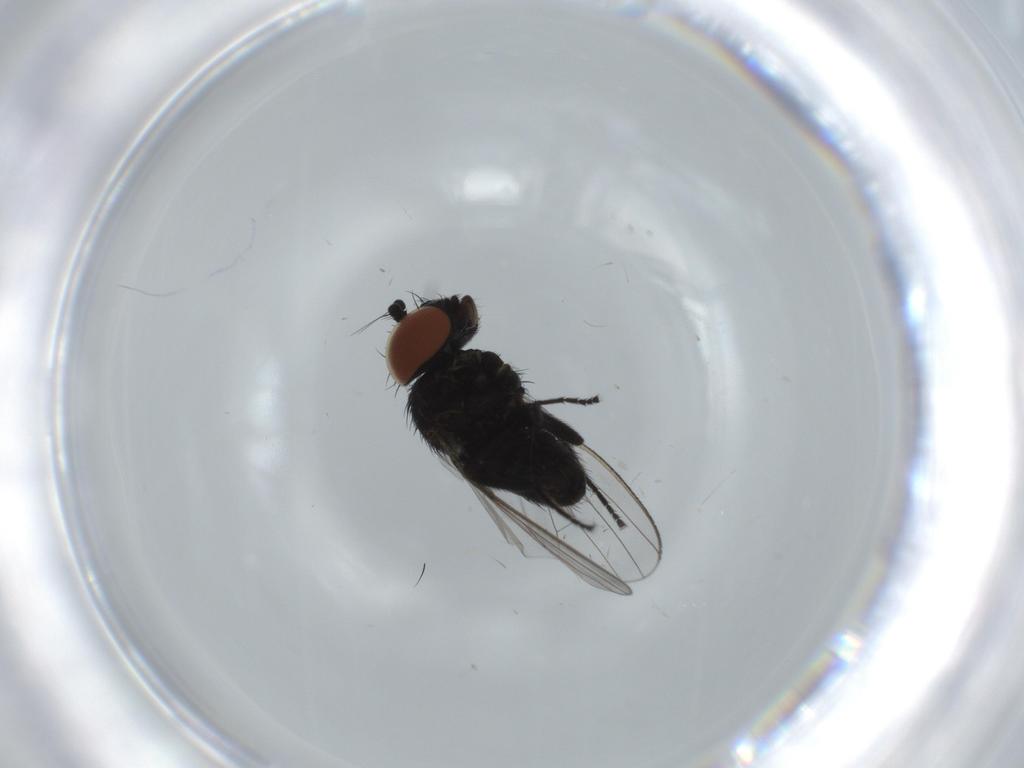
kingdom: Animalia
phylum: Arthropoda
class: Insecta
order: Diptera
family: Milichiidae
